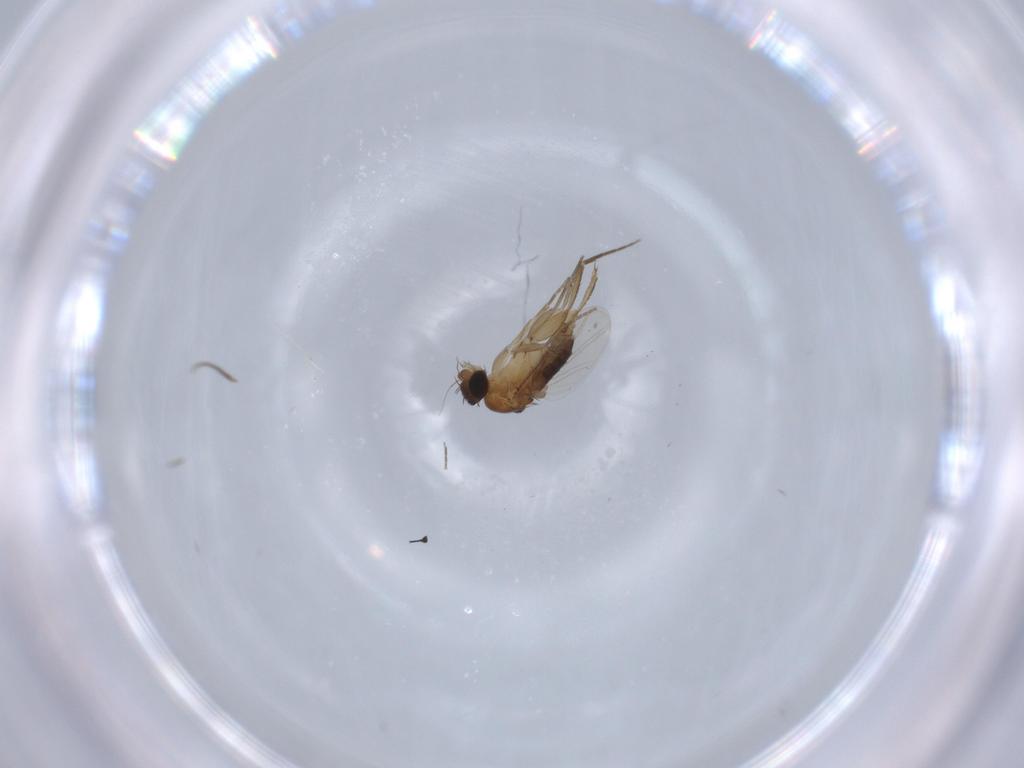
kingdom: Animalia
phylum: Arthropoda
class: Insecta
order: Diptera
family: Phoridae
